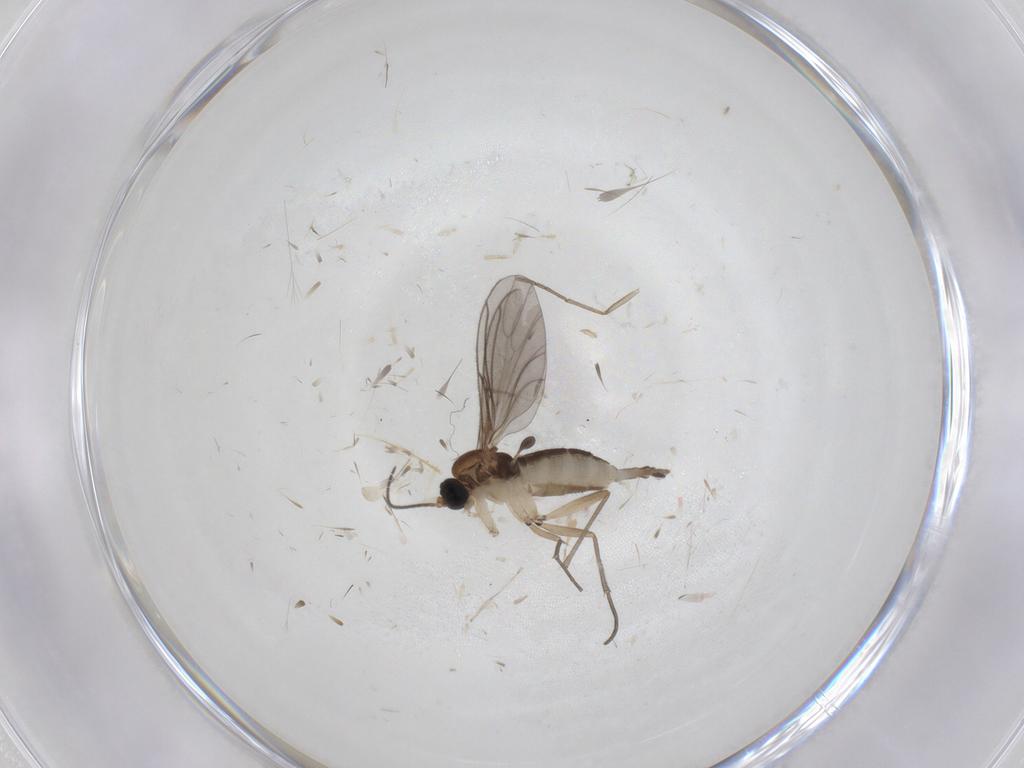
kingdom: Animalia
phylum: Arthropoda
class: Insecta
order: Diptera
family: Sciaridae
